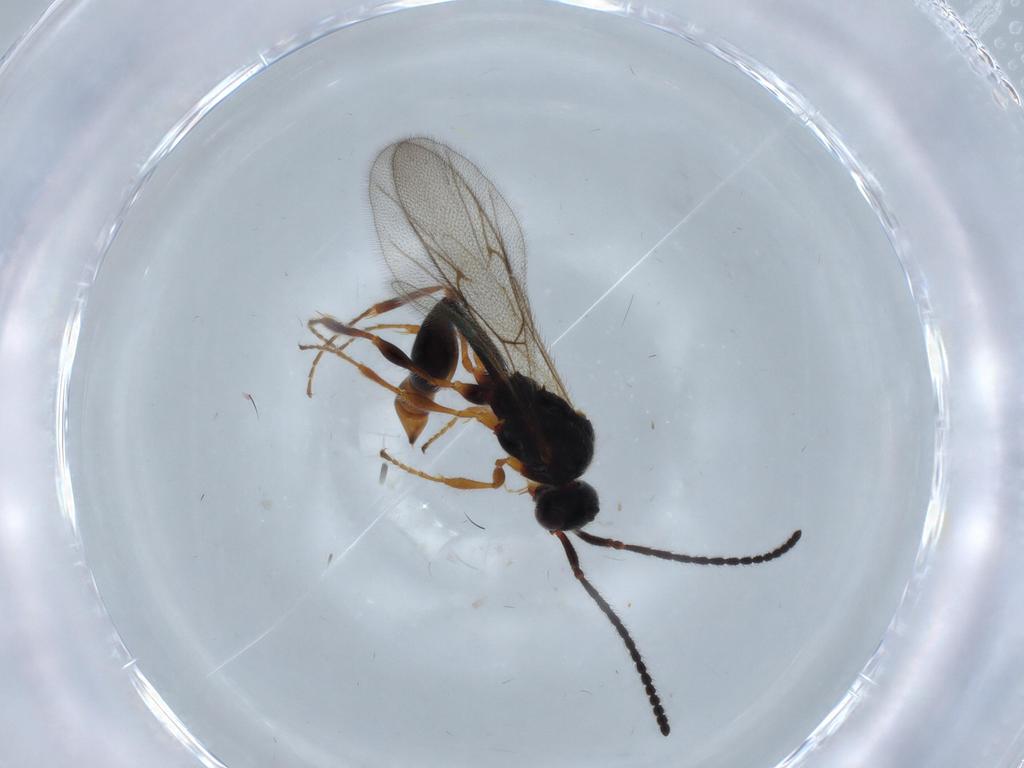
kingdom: Animalia
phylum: Arthropoda
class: Insecta
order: Hymenoptera
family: Diapriidae
